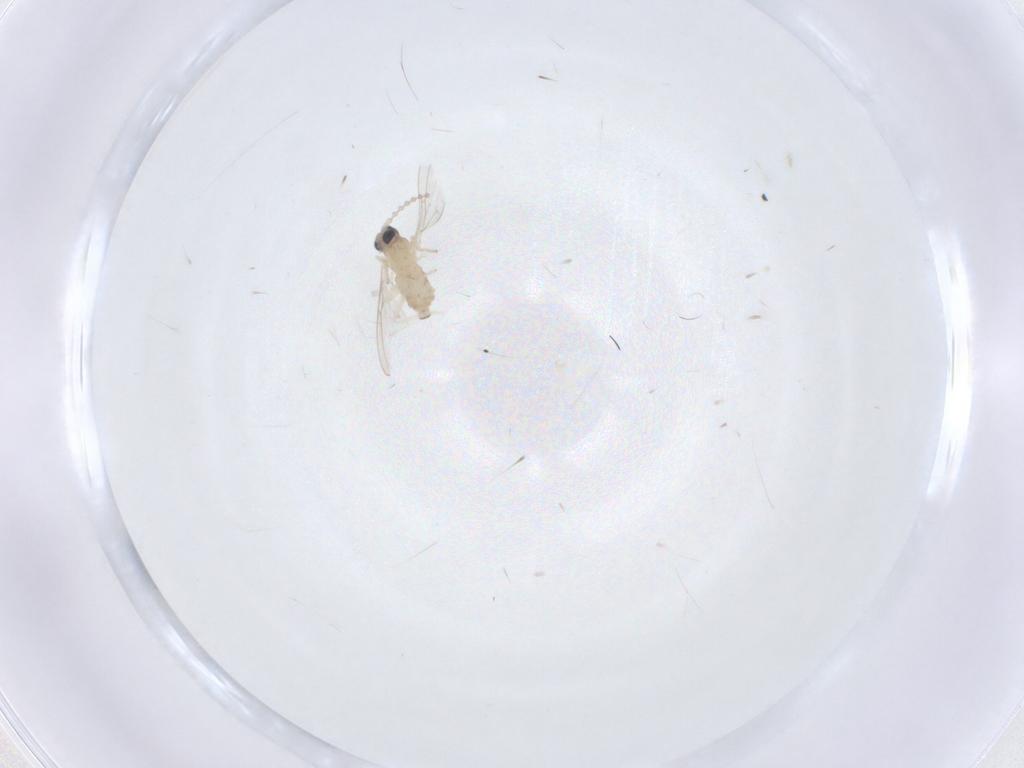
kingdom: Animalia
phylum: Arthropoda
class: Insecta
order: Diptera
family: Cecidomyiidae
